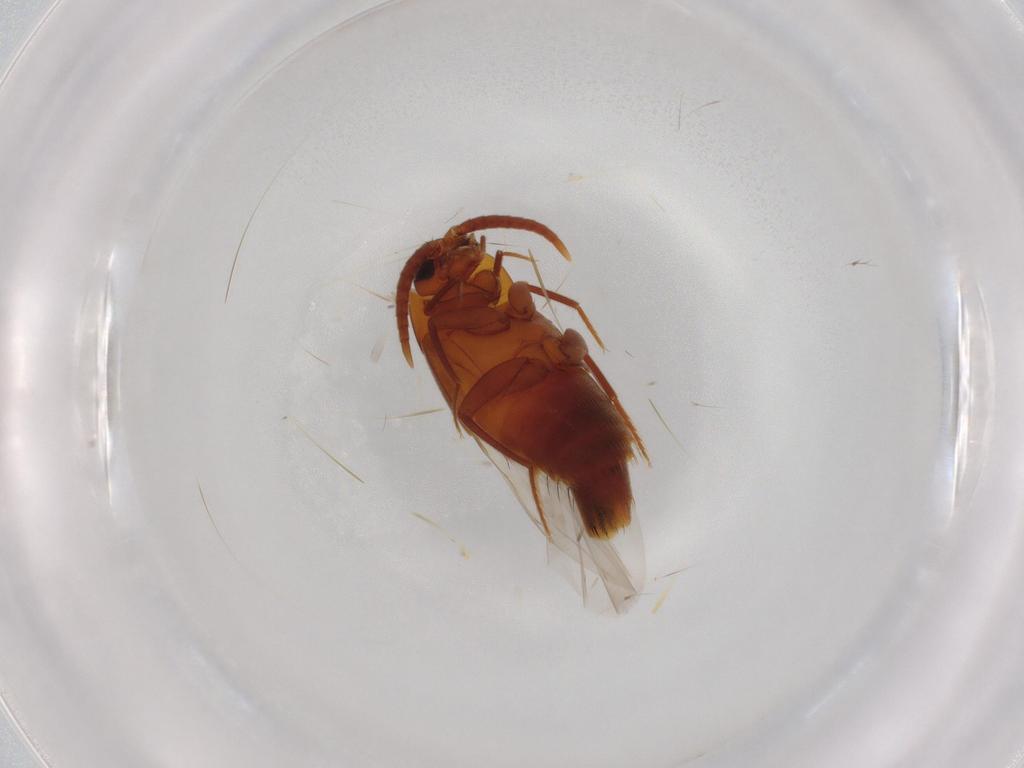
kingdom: Animalia
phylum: Arthropoda
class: Insecta
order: Coleoptera
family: Staphylinidae
